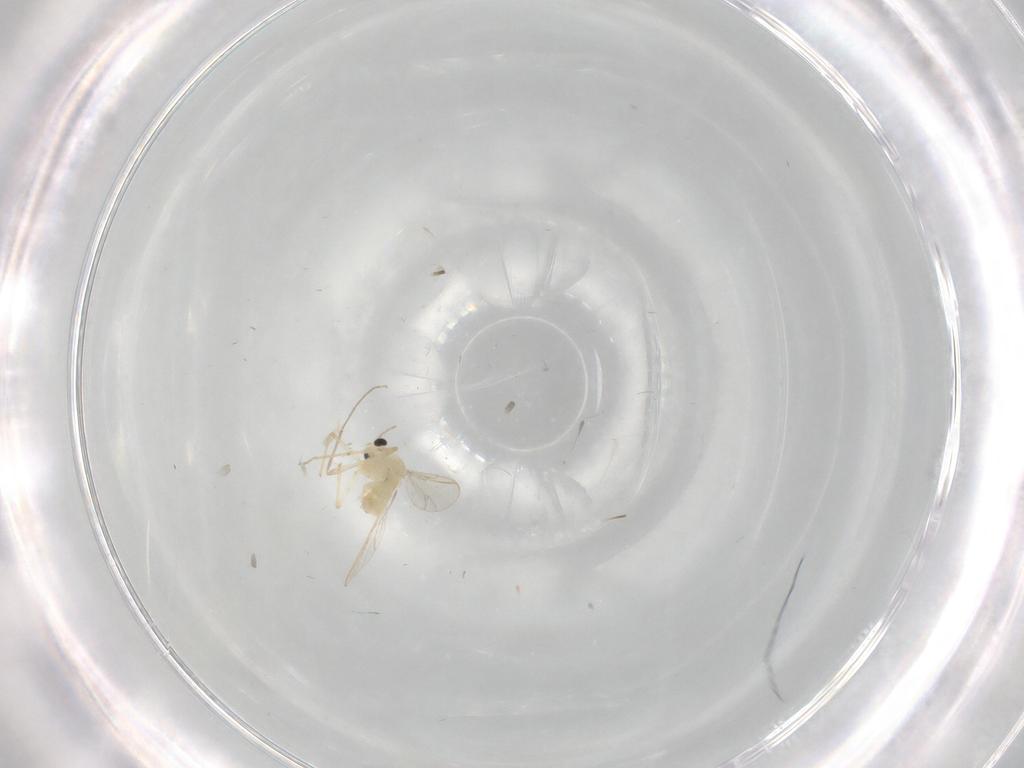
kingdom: Animalia
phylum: Arthropoda
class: Insecta
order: Diptera
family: Chironomidae
